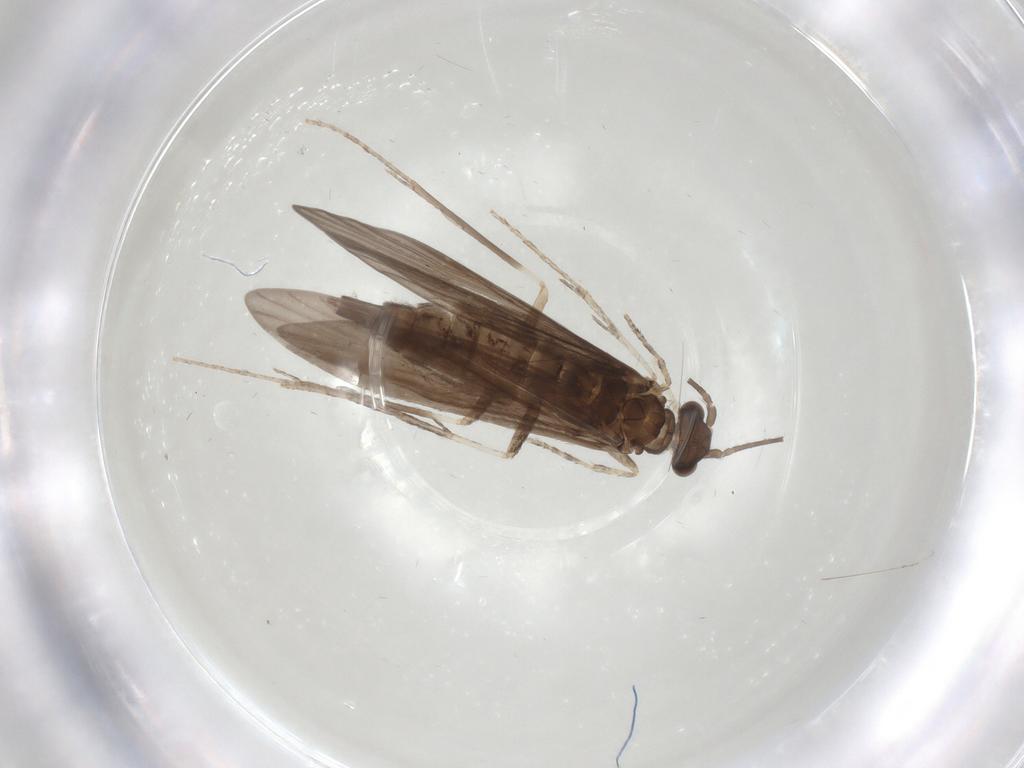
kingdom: Animalia
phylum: Arthropoda
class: Insecta
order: Trichoptera
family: Xiphocentronidae
